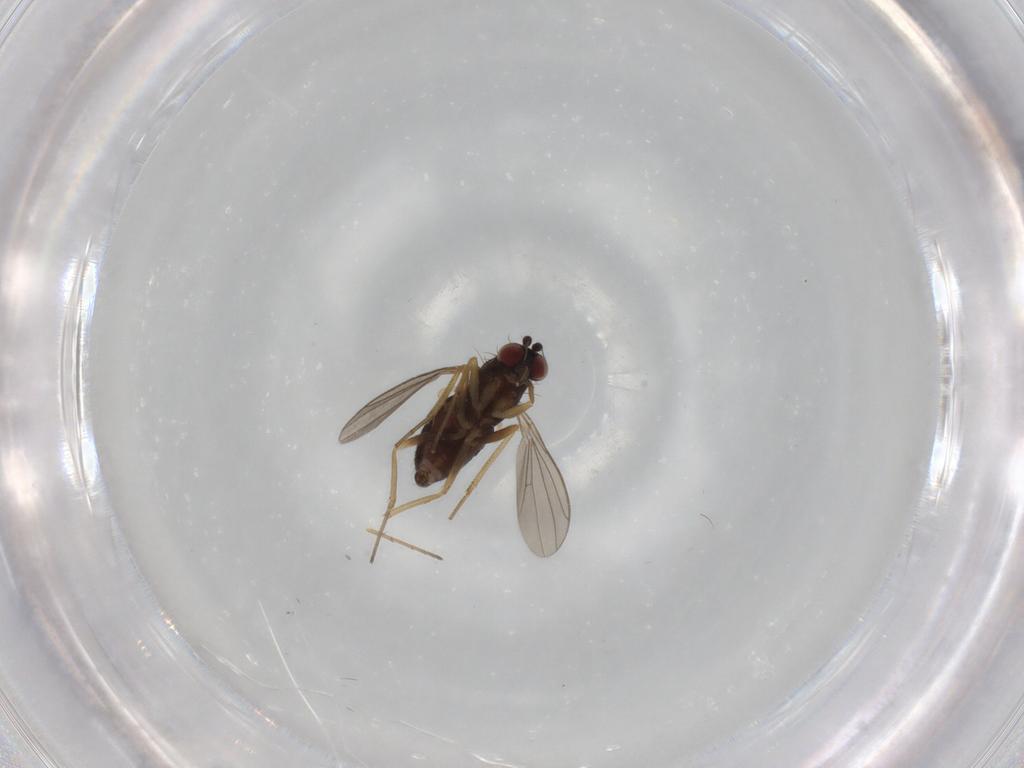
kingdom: Animalia
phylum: Arthropoda
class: Insecta
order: Diptera
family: Dolichopodidae
